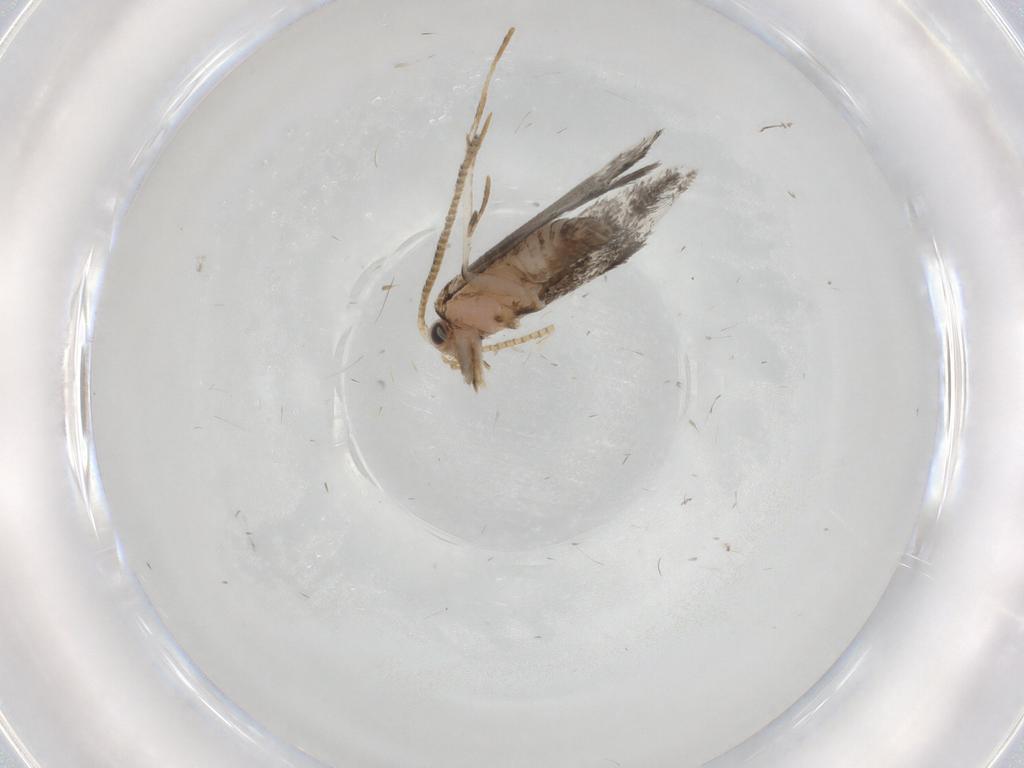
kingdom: Animalia
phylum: Arthropoda
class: Insecta
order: Lepidoptera
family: Tineidae
